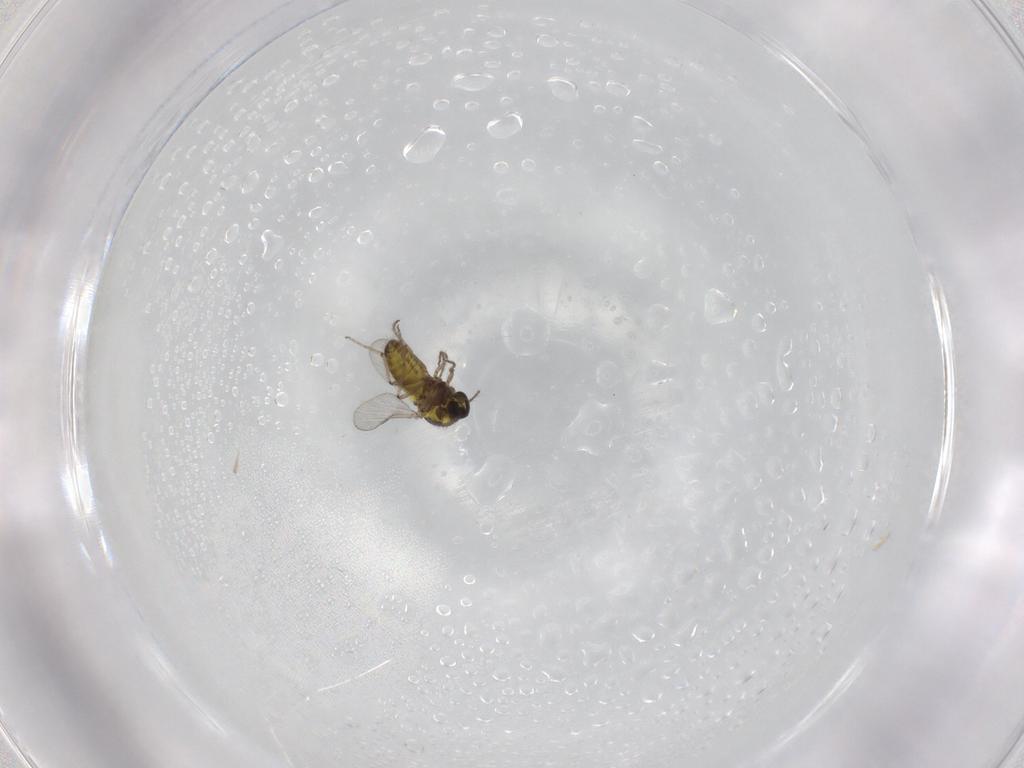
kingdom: Animalia
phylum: Arthropoda
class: Insecta
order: Diptera
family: Ceratopogonidae
